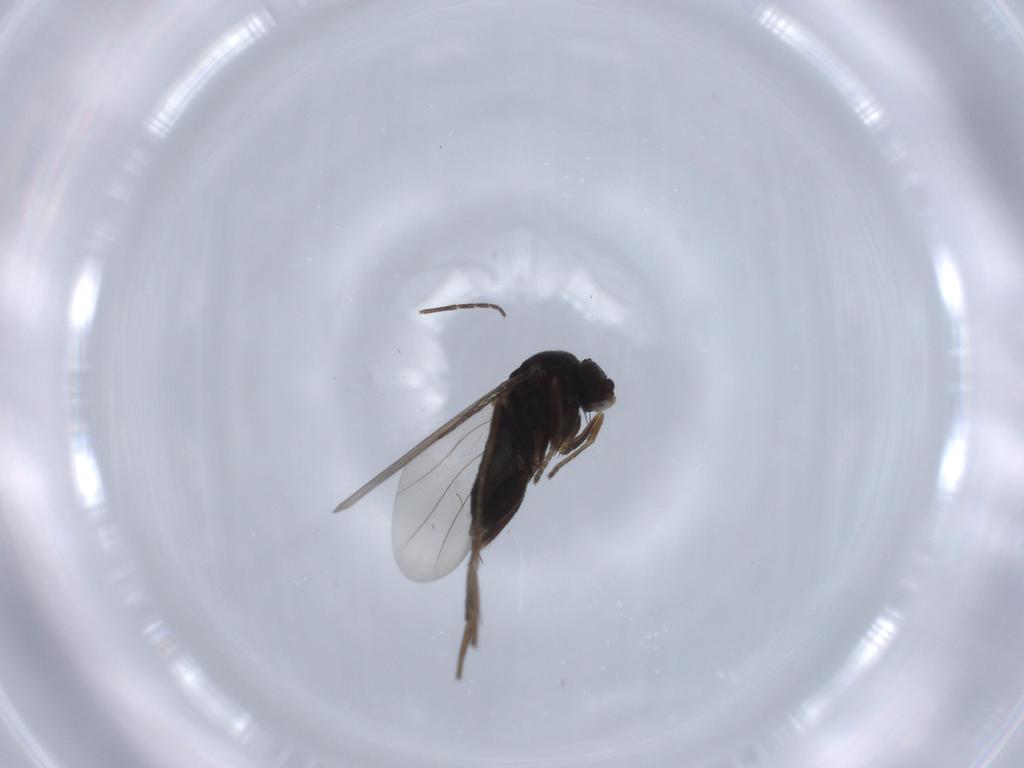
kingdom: Animalia
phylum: Arthropoda
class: Insecta
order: Diptera
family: Phoridae
